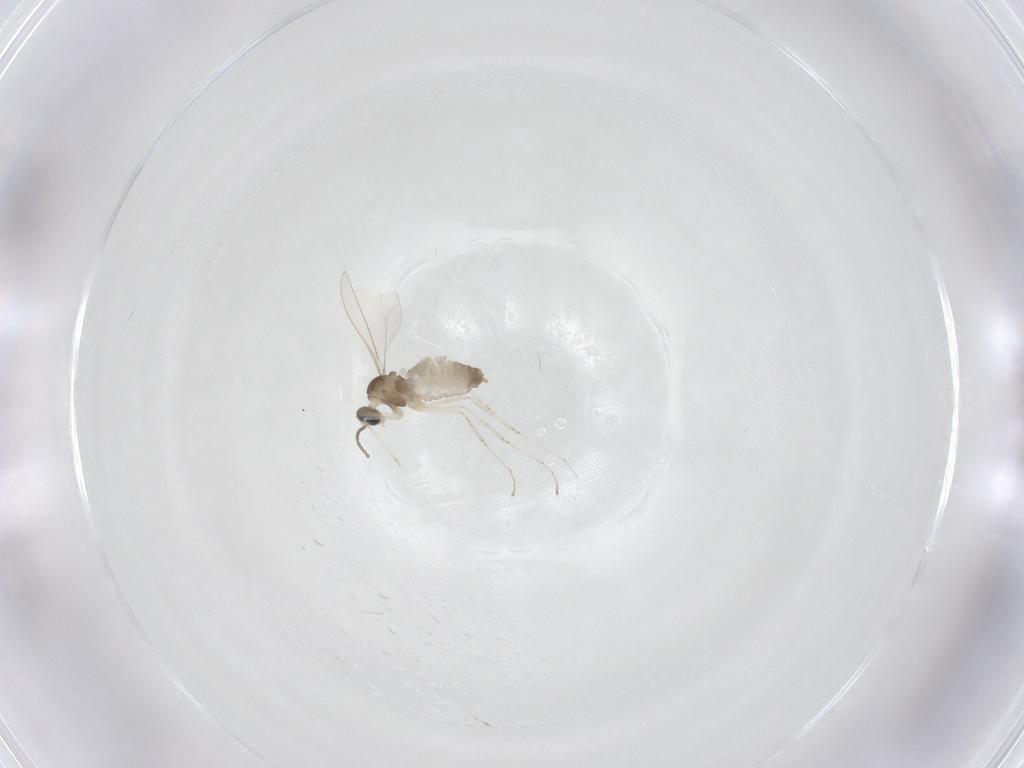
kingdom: Animalia
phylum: Arthropoda
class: Insecta
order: Diptera
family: Cecidomyiidae
